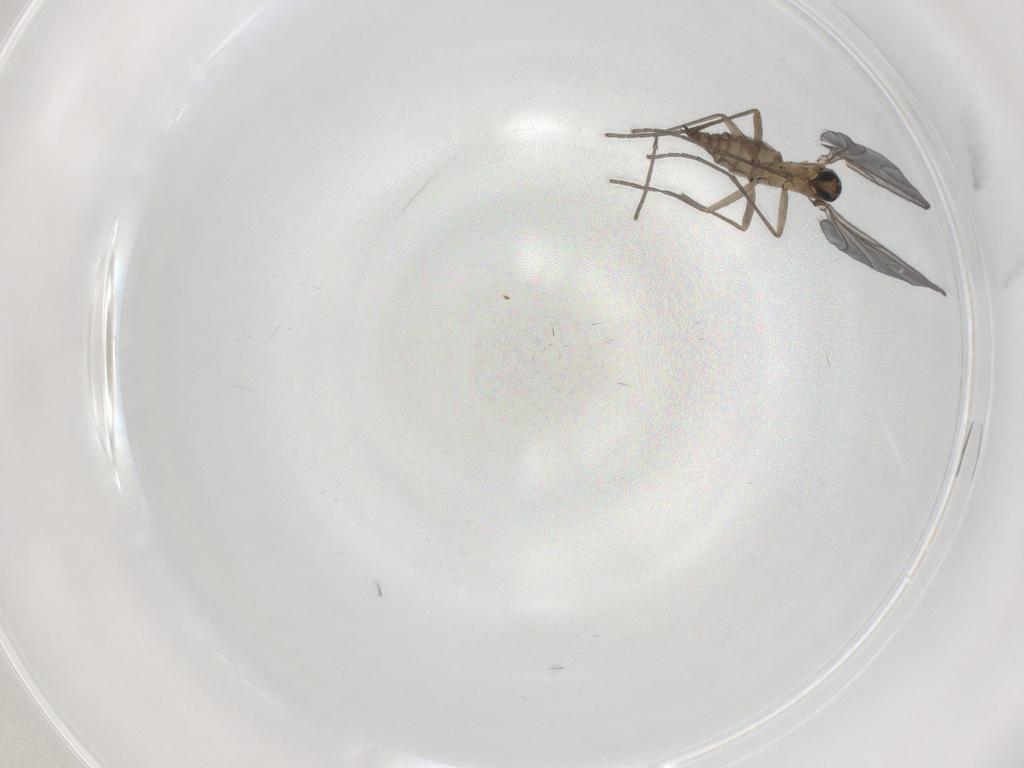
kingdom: Animalia
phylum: Arthropoda
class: Insecta
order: Diptera
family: Sciaridae
